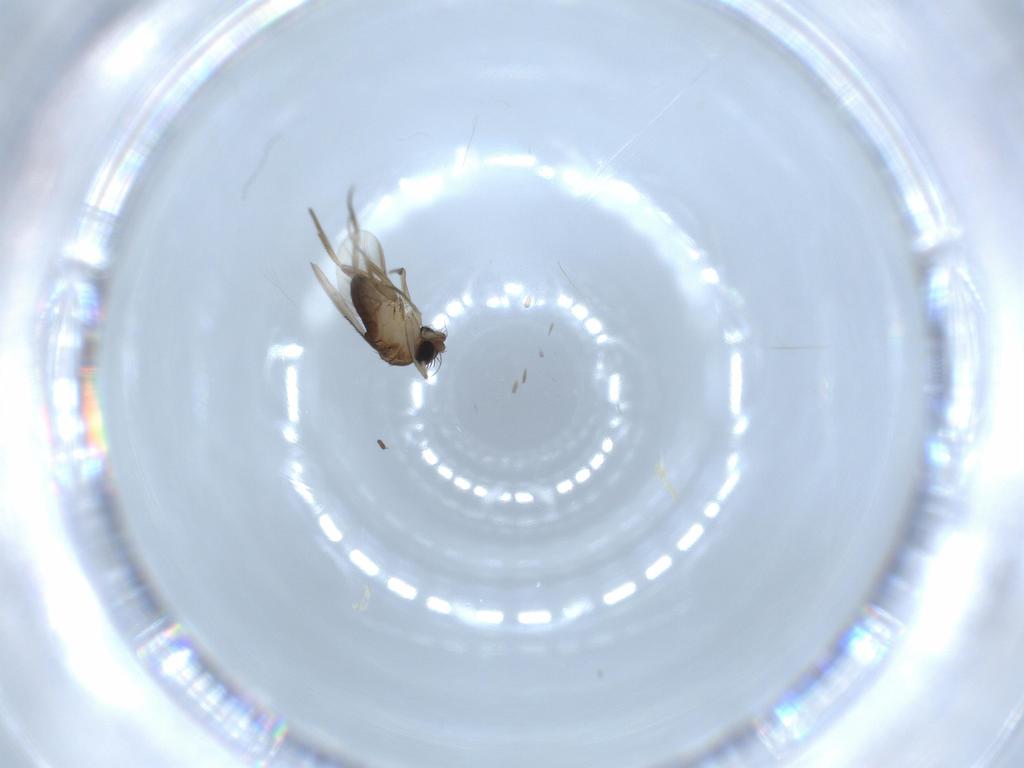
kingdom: Animalia
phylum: Arthropoda
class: Insecta
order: Diptera
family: Phoridae
